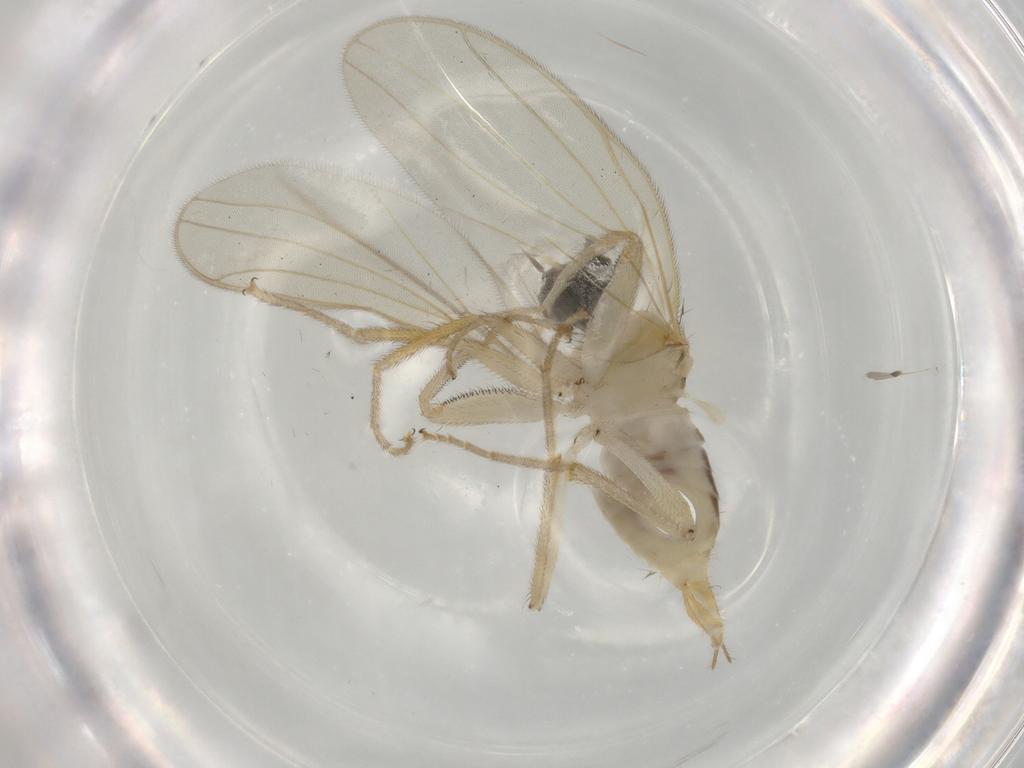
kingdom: Animalia
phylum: Arthropoda
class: Insecta
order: Diptera
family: Hybotidae
